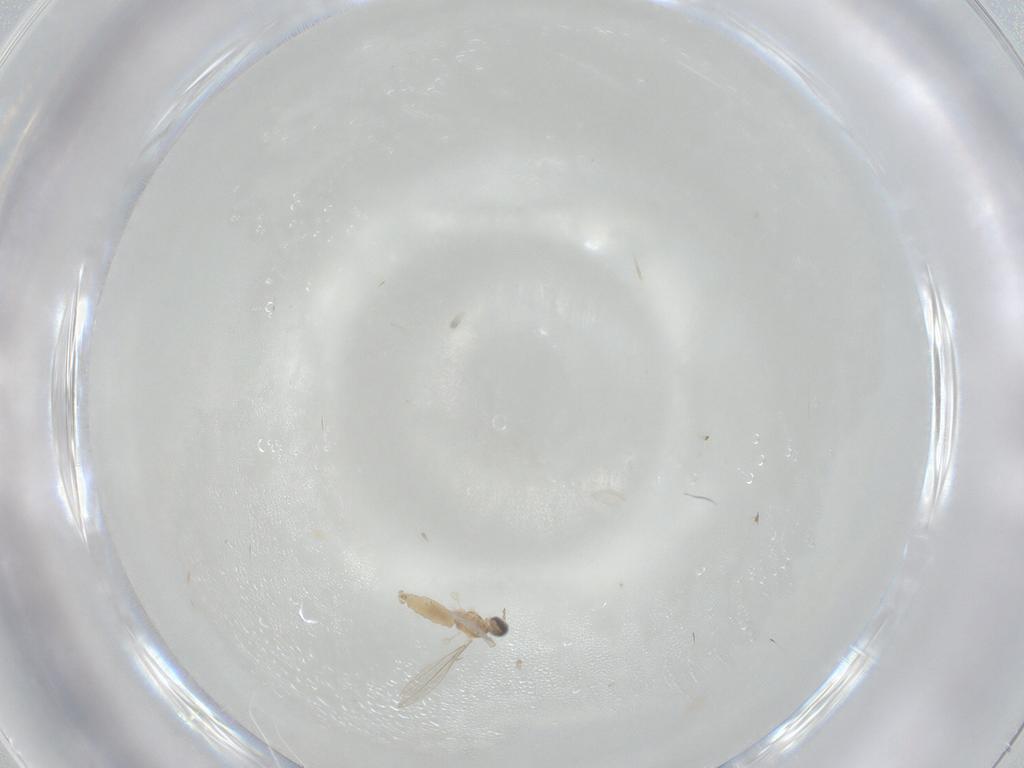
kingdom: Animalia
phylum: Arthropoda
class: Insecta
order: Diptera
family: Cecidomyiidae
